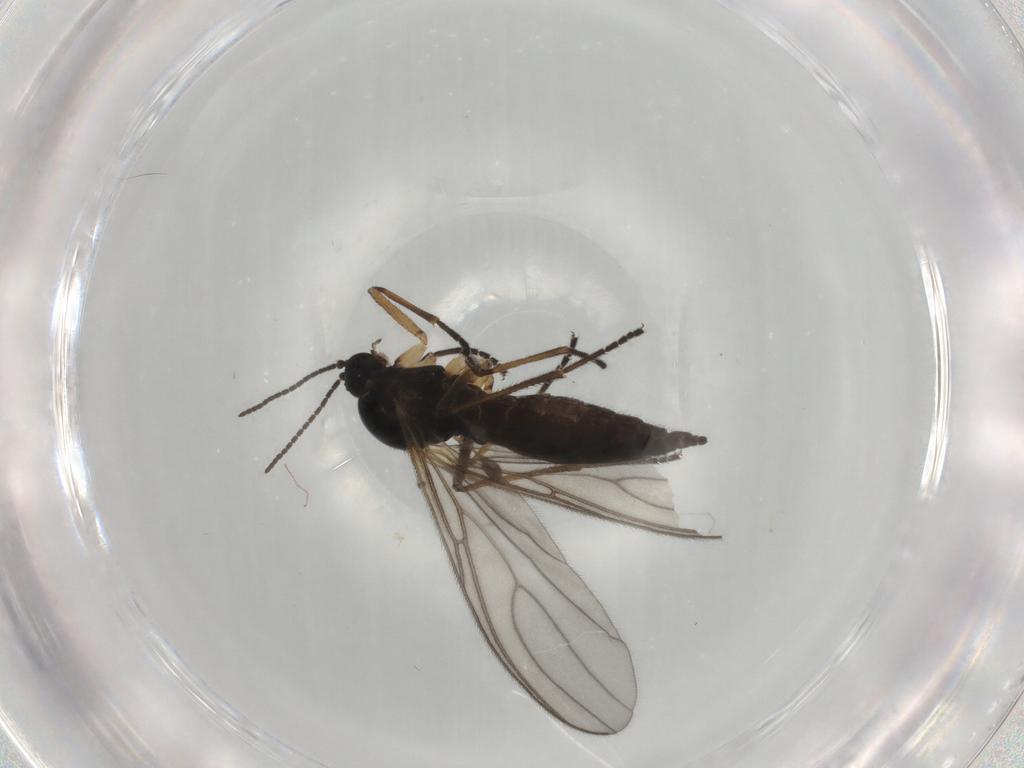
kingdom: Animalia
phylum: Arthropoda
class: Insecta
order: Diptera
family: Sciaridae
